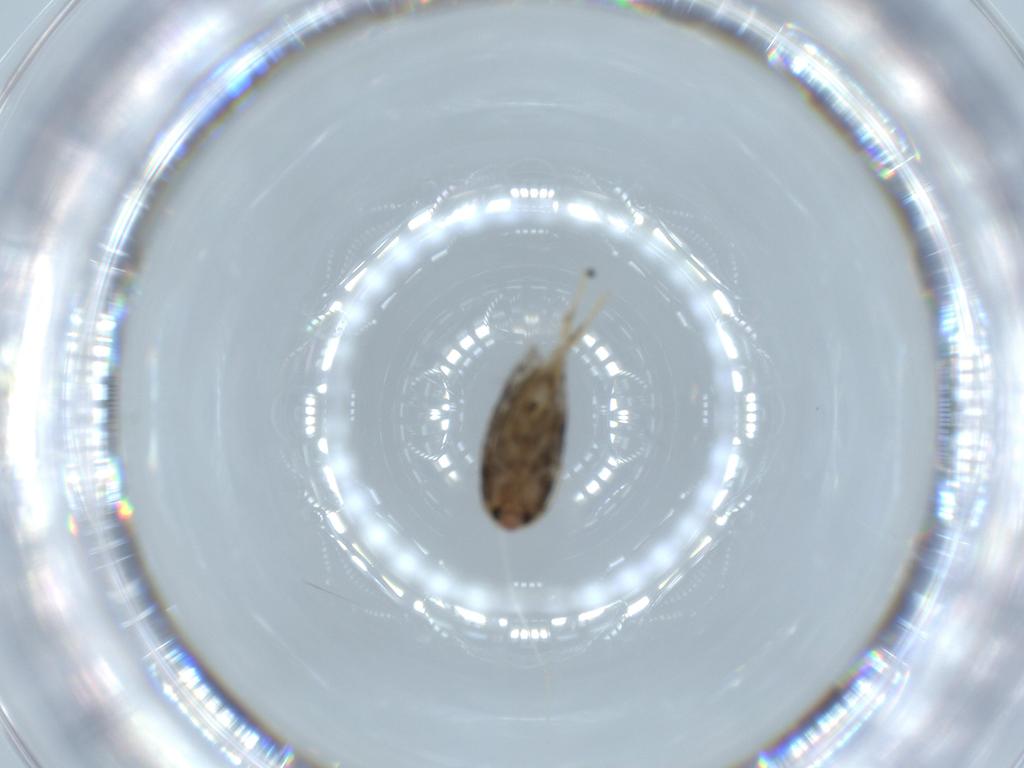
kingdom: Animalia
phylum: Arthropoda
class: Insecta
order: Lepidoptera
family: Nepticulidae
